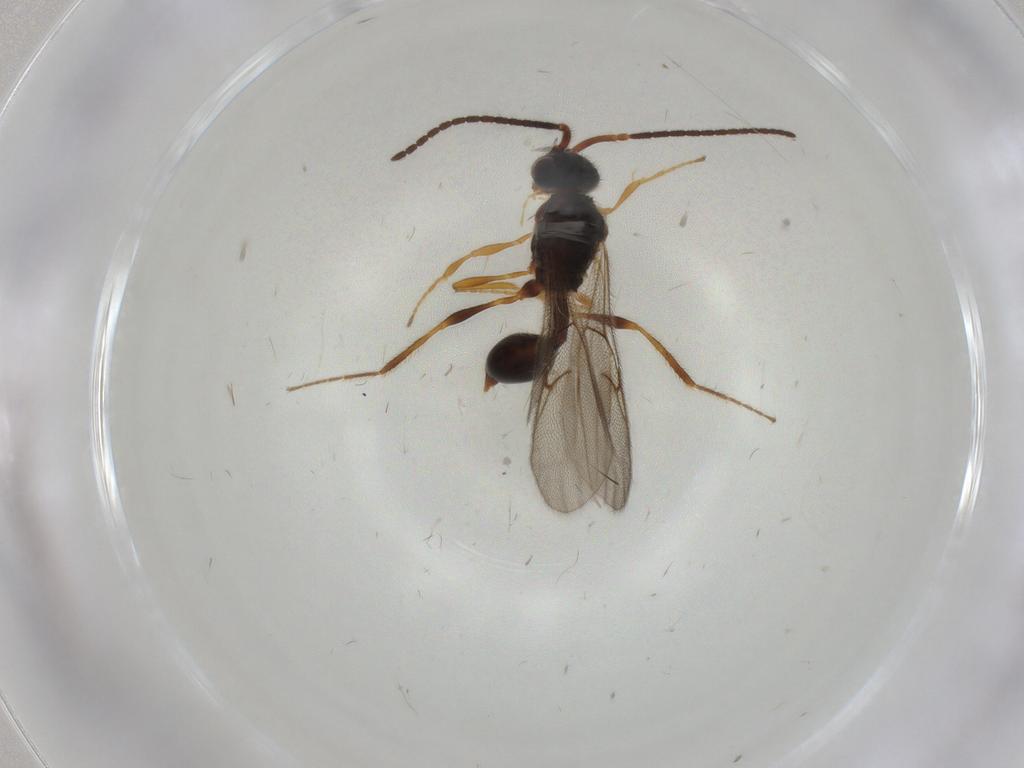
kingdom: Animalia
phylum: Arthropoda
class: Insecta
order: Hymenoptera
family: Diapriidae
